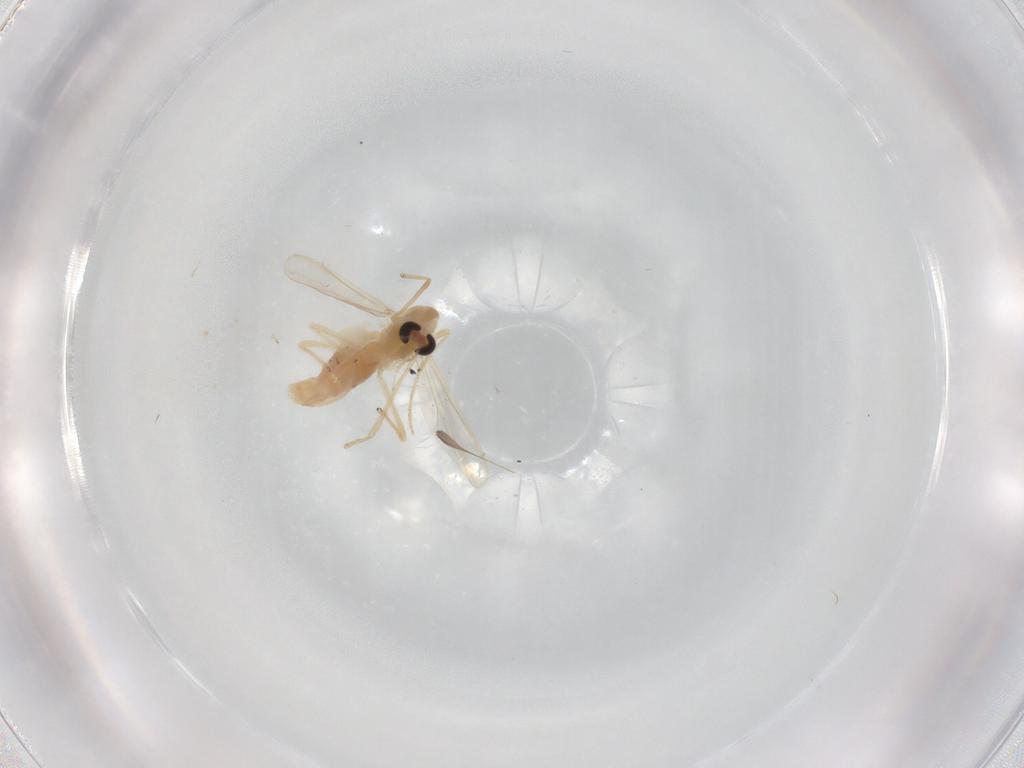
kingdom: Animalia
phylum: Arthropoda
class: Insecta
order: Diptera
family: Chironomidae
